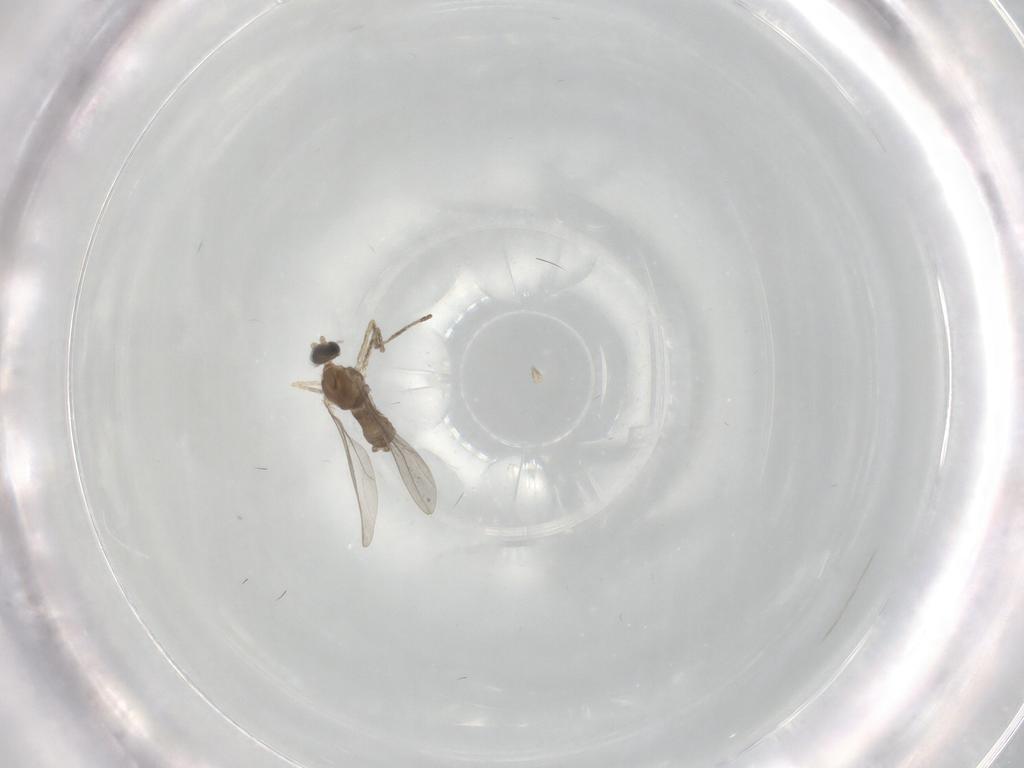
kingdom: Animalia
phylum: Arthropoda
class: Insecta
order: Diptera
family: Cecidomyiidae
